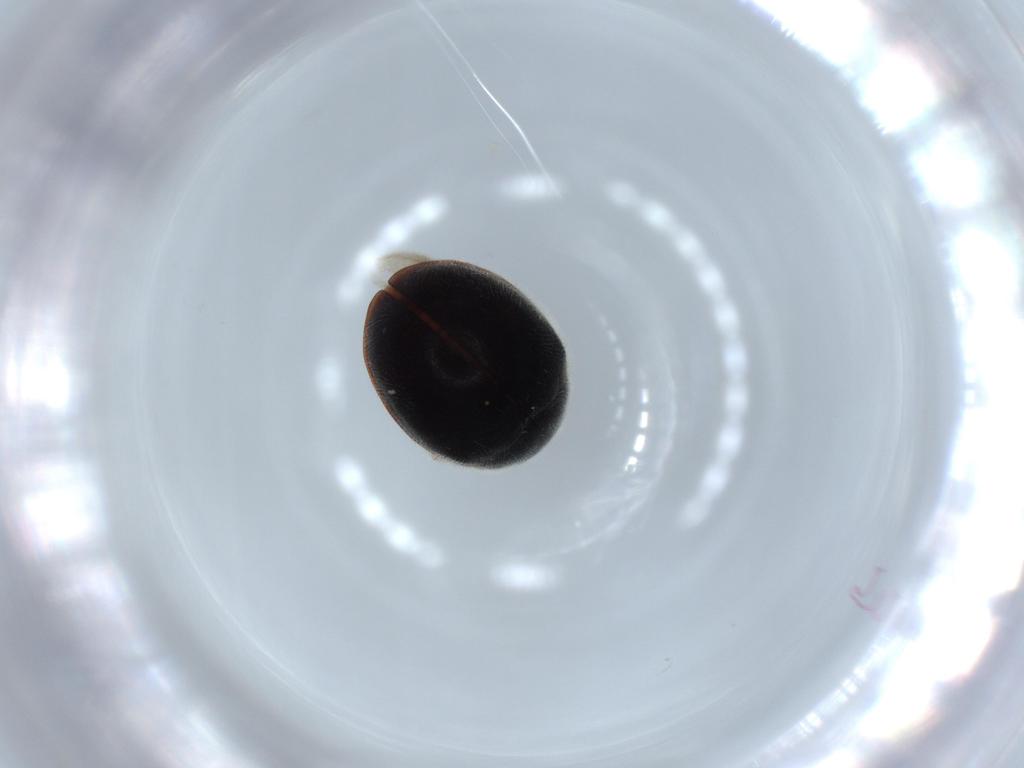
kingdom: Animalia
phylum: Arthropoda
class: Insecta
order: Coleoptera
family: Coccinellidae
